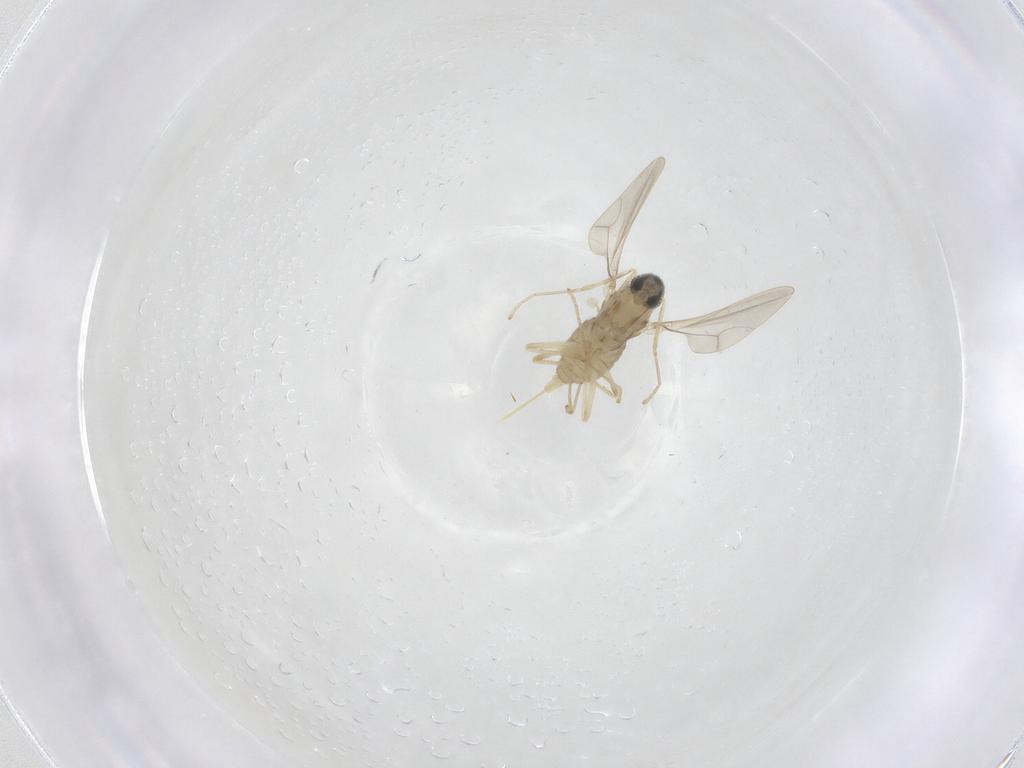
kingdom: Animalia
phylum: Arthropoda
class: Insecta
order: Diptera
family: Cecidomyiidae
